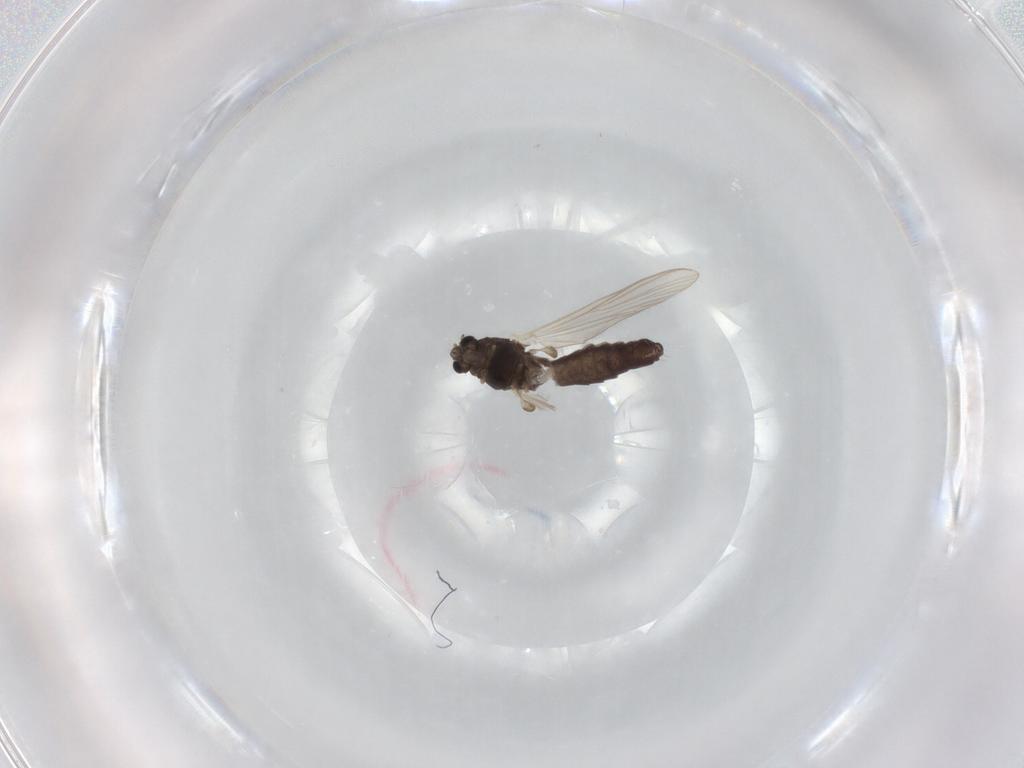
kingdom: Animalia
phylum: Arthropoda
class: Insecta
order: Diptera
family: Chironomidae
